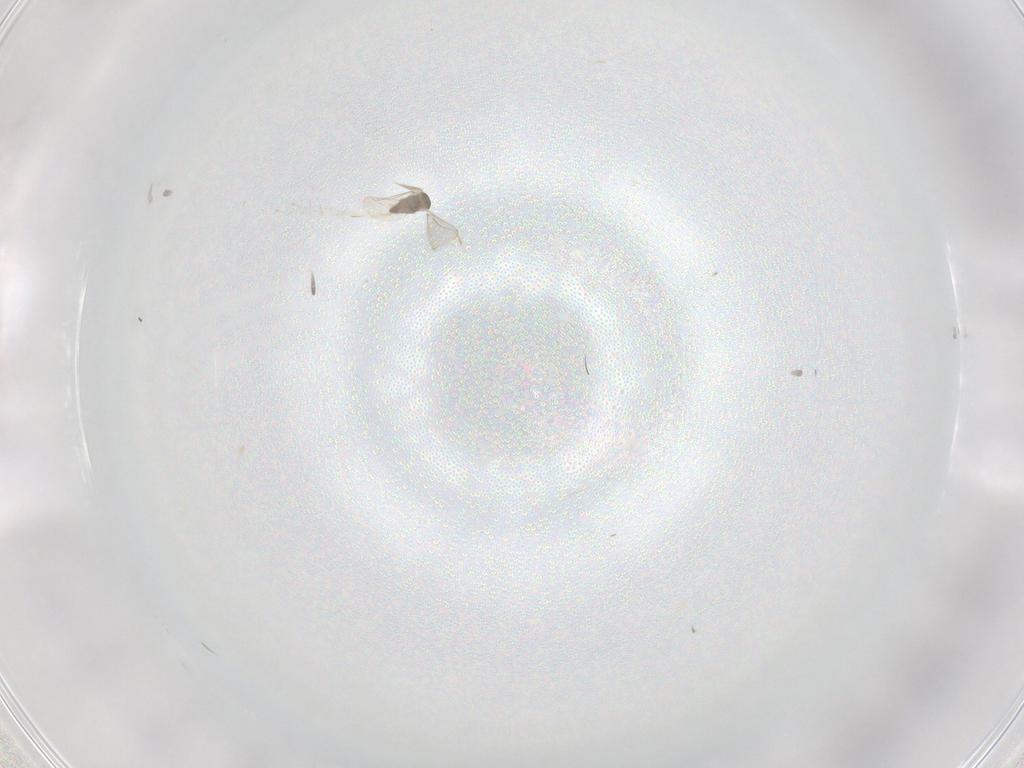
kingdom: Animalia
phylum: Arthropoda
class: Insecta
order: Diptera
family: Cecidomyiidae
